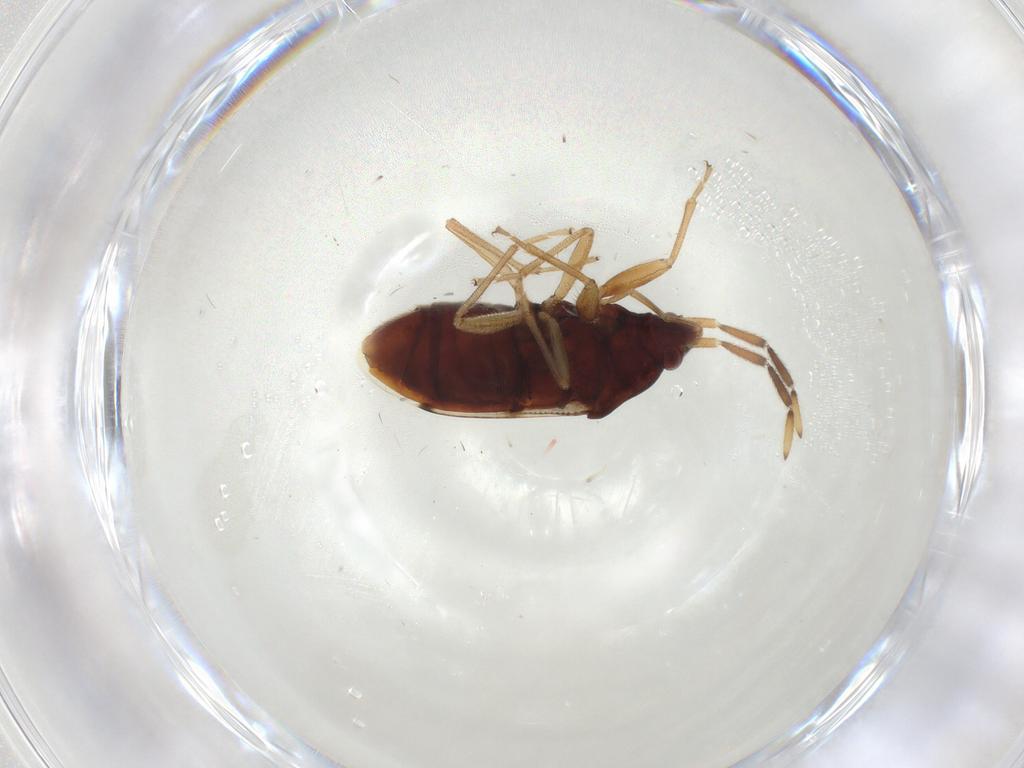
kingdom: Animalia
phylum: Arthropoda
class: Insecta
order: Hemiptera
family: Rhyparochromidae
